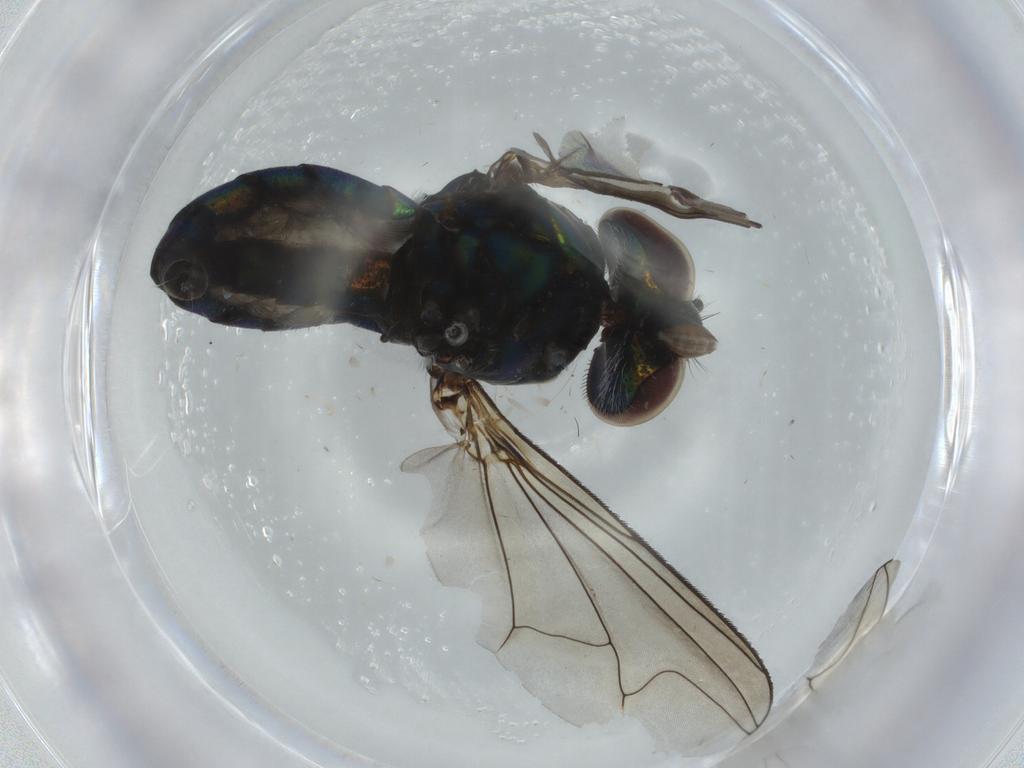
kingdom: Animalia
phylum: Arthropoda
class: Insecta
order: Diptera
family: Chloropidae
